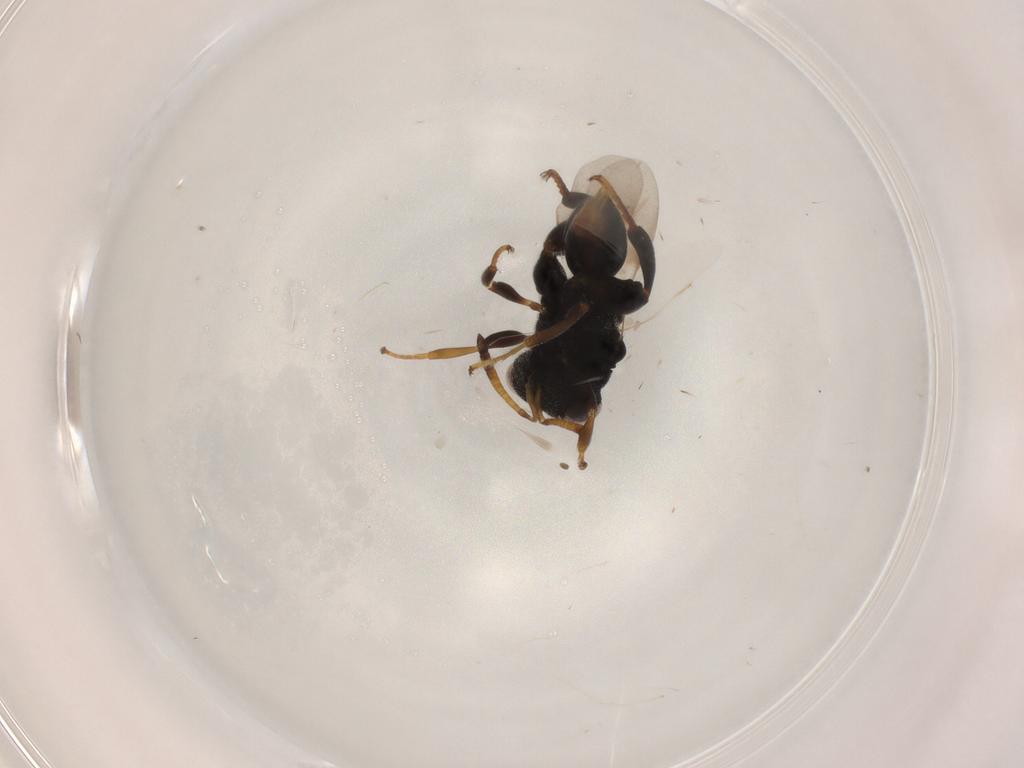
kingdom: Animalia
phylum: Arthropoda
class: Insecta
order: Hymenoptera
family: Chalcididae
